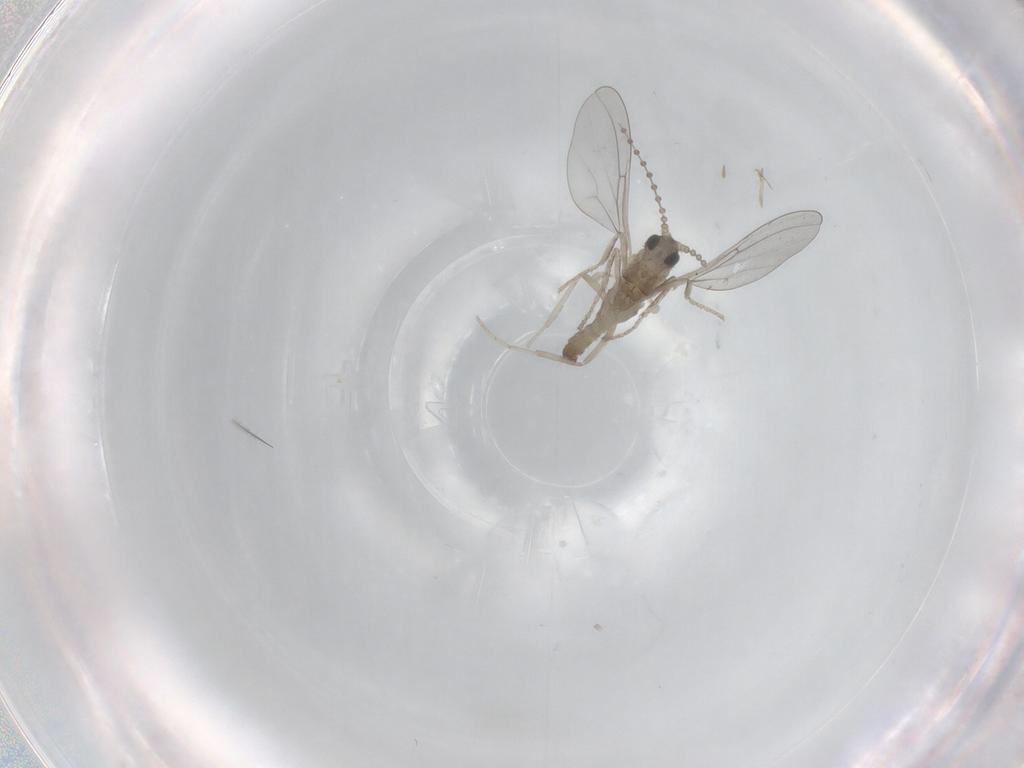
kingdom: Animalia
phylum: Arthropoda
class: Insecta
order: Diptera
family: Cecidomyiidae
